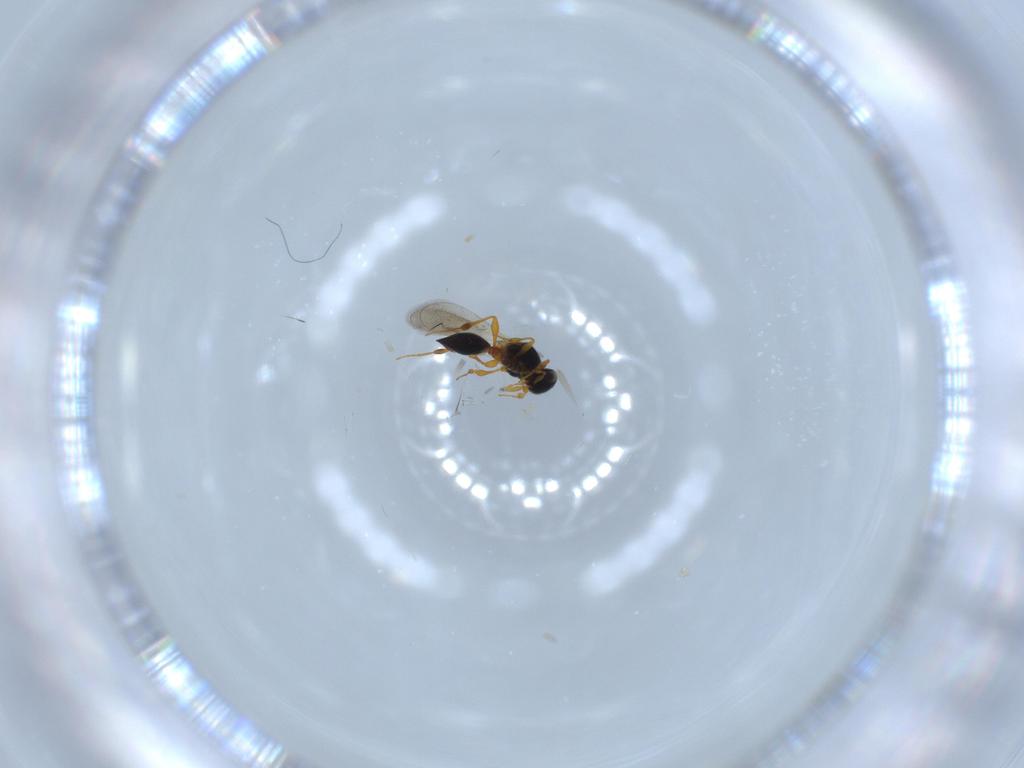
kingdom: Animalia
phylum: Arthropoda
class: Insecta
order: Hymenoptera
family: Platygastridae
